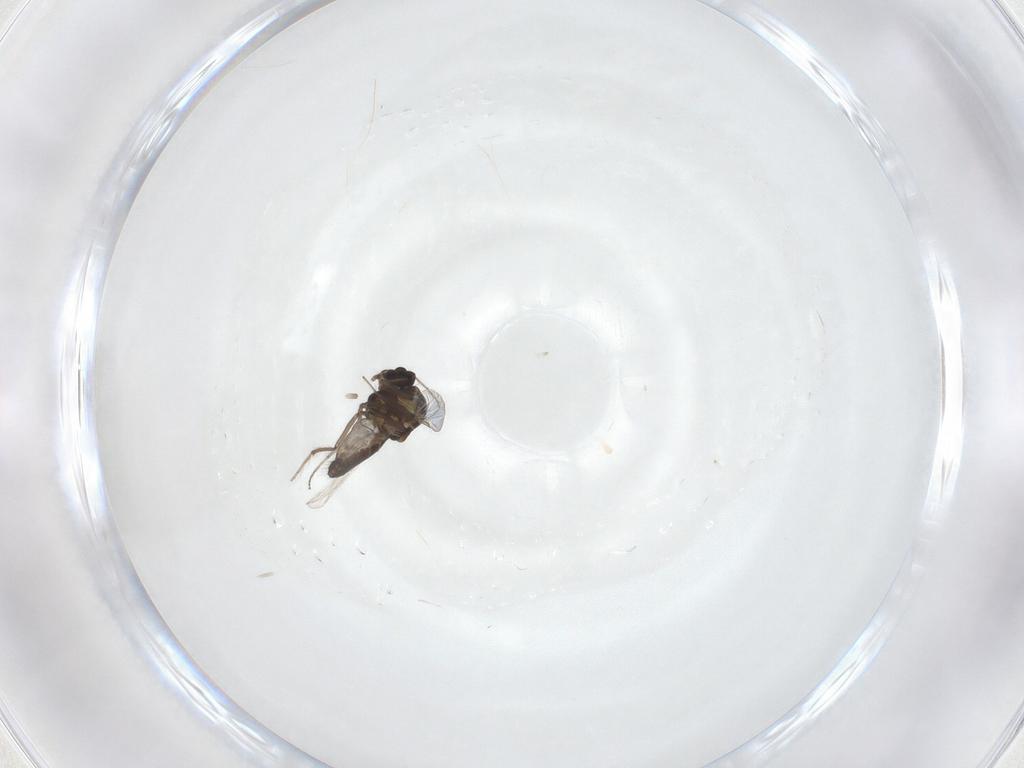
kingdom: Animalia
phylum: Arthropoda
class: Insecta
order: Diptera
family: Ceratopogonidae
